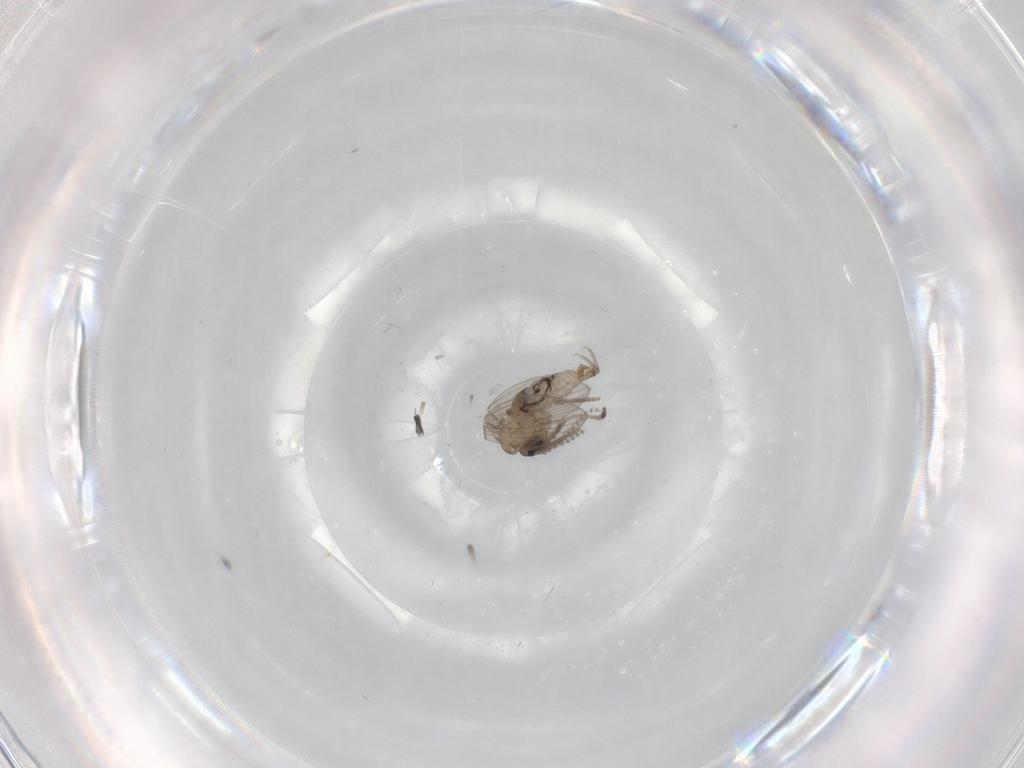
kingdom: Animalia
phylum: Arthropoda
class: Insecta
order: Diptera
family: Psychodidae
